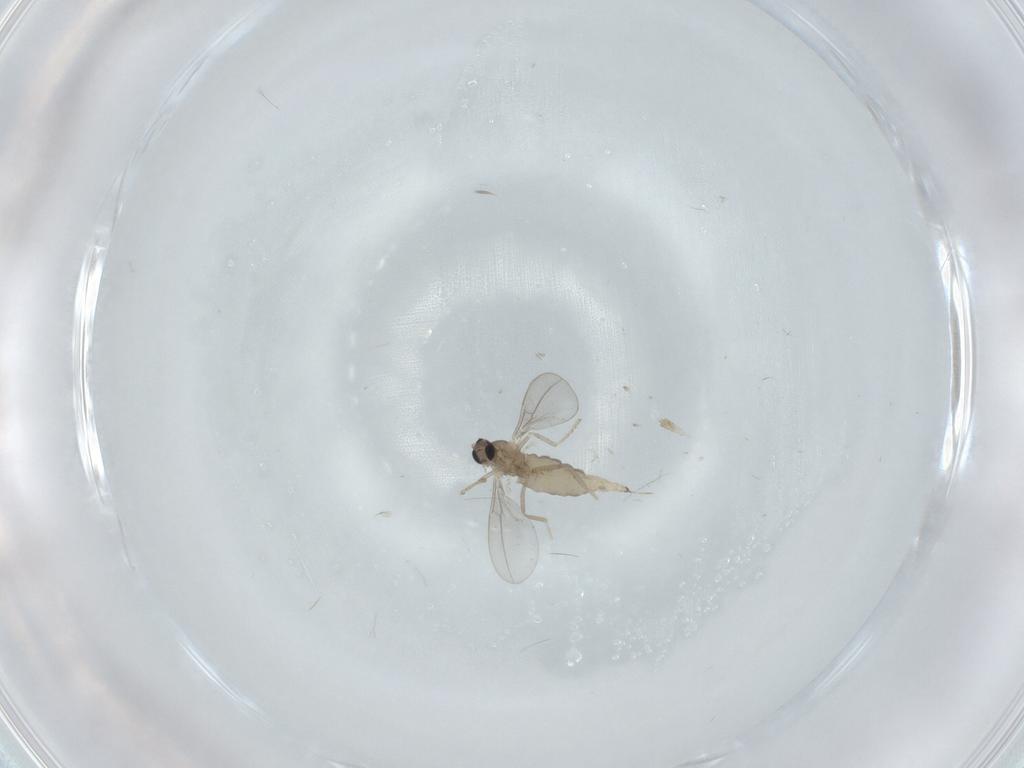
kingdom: Animalia
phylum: Arthropoda
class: Insecta
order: Diptera
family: Cecidomyiidae
